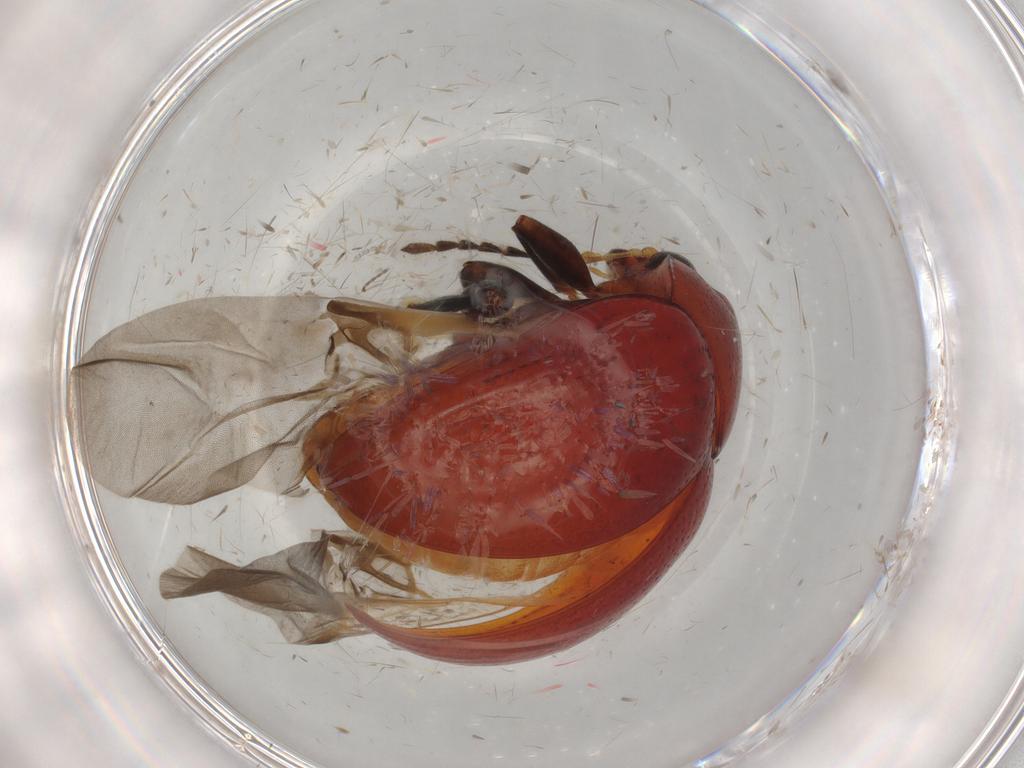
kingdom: Animalia
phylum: Arthropoda
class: Insecta
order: Coleoptera
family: Chrysomelidae
